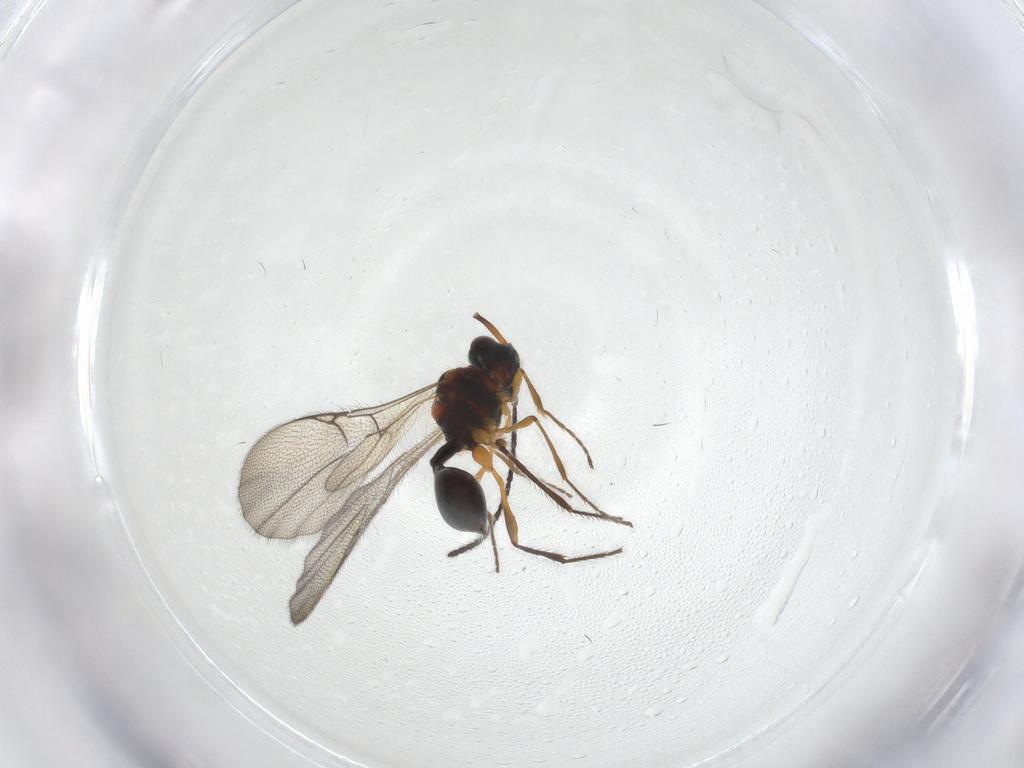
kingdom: Animalia
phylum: Arthropoda
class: Insecta
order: Hymenoptera
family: Diapriidae
